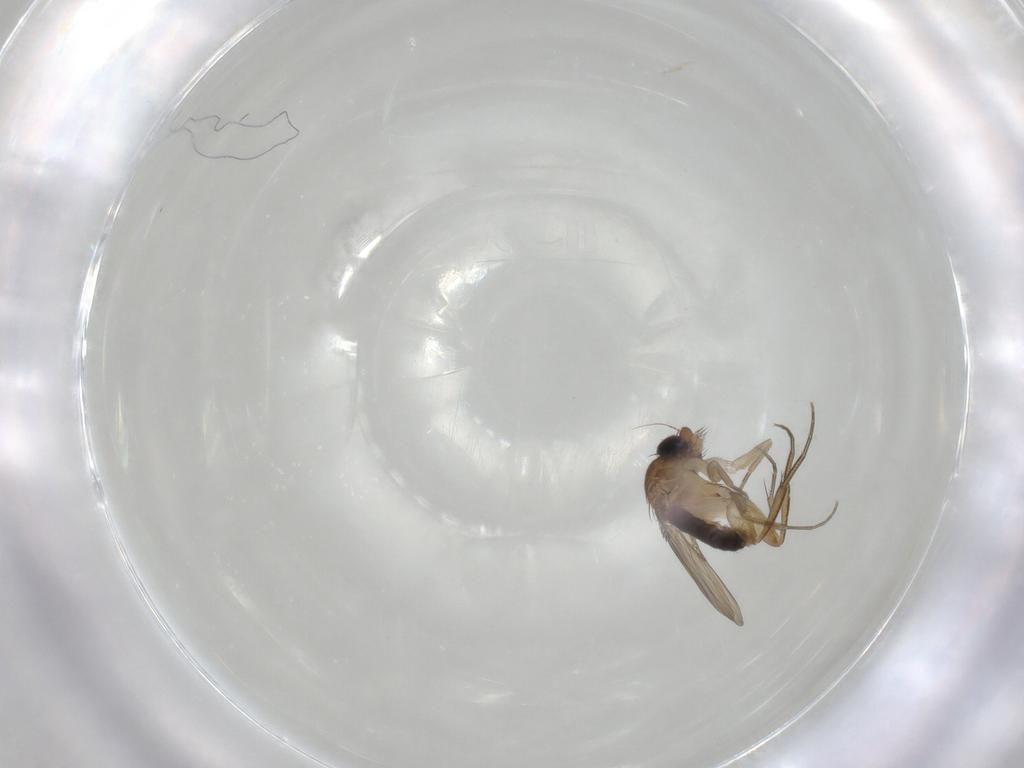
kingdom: Animalia
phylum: Arthropoda
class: Insecta
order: Diptera
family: Phoridae
